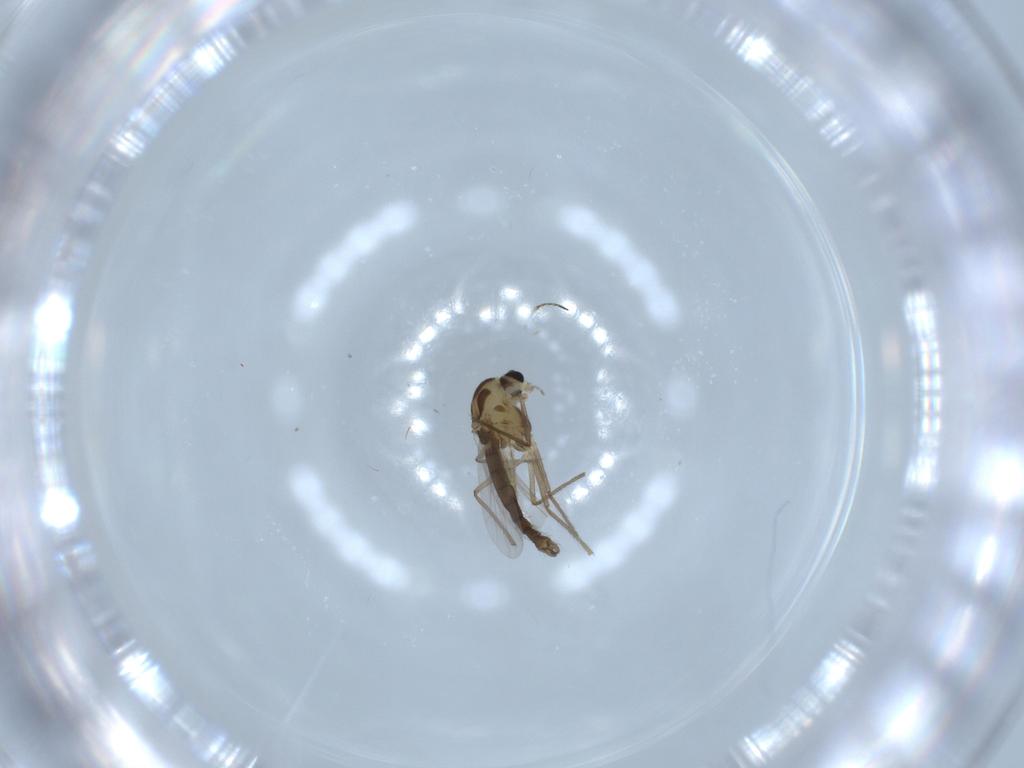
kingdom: Animalia
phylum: Arthropoda
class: Insecta
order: Diptera
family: Chironomidae
